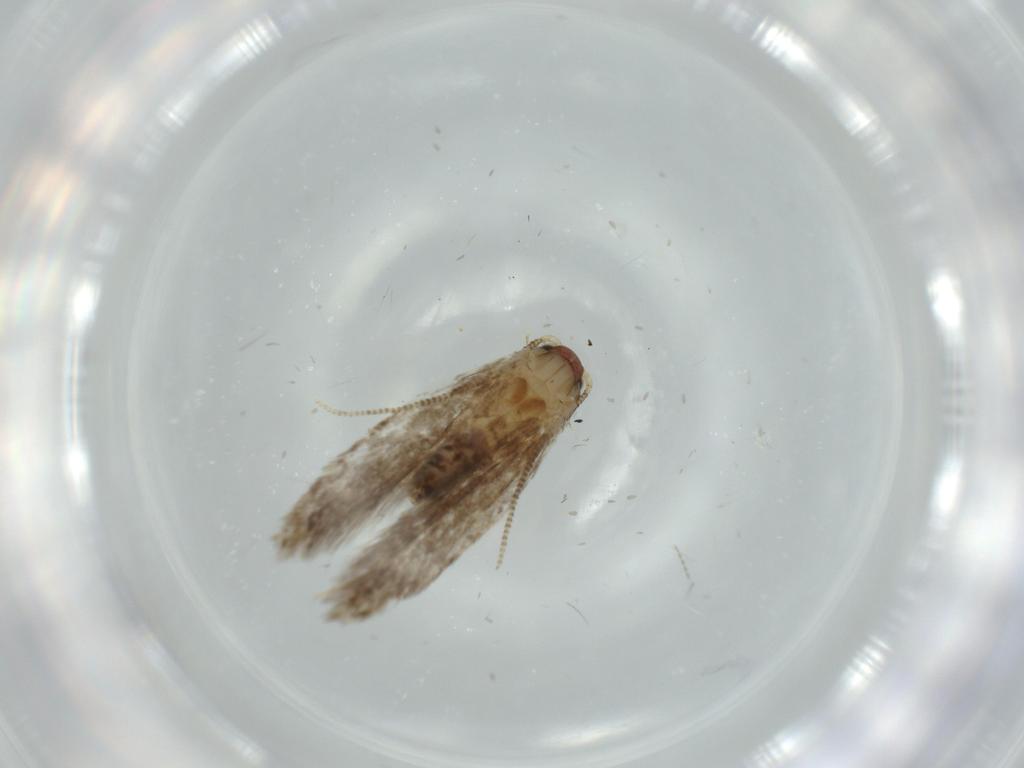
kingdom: Animalia
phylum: Arthropoda
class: Insecta
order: Lepidoptera
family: Tineidae
